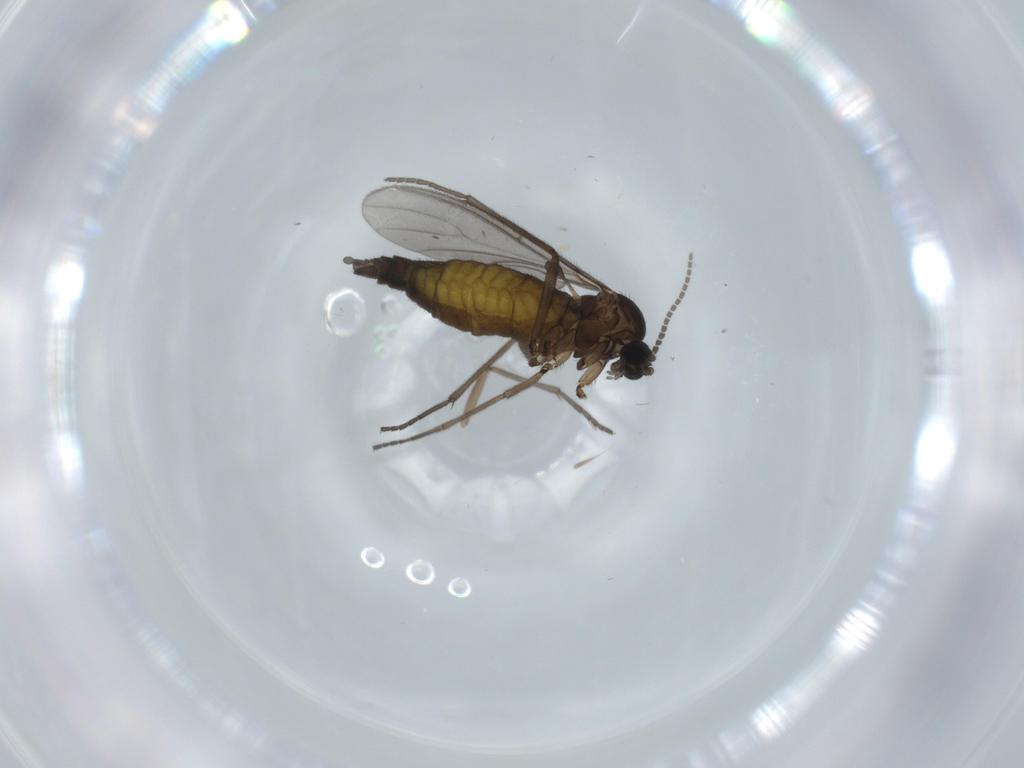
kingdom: Animalia
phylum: Arthropoda
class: Insecta
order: Diptera
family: Sciaridae
